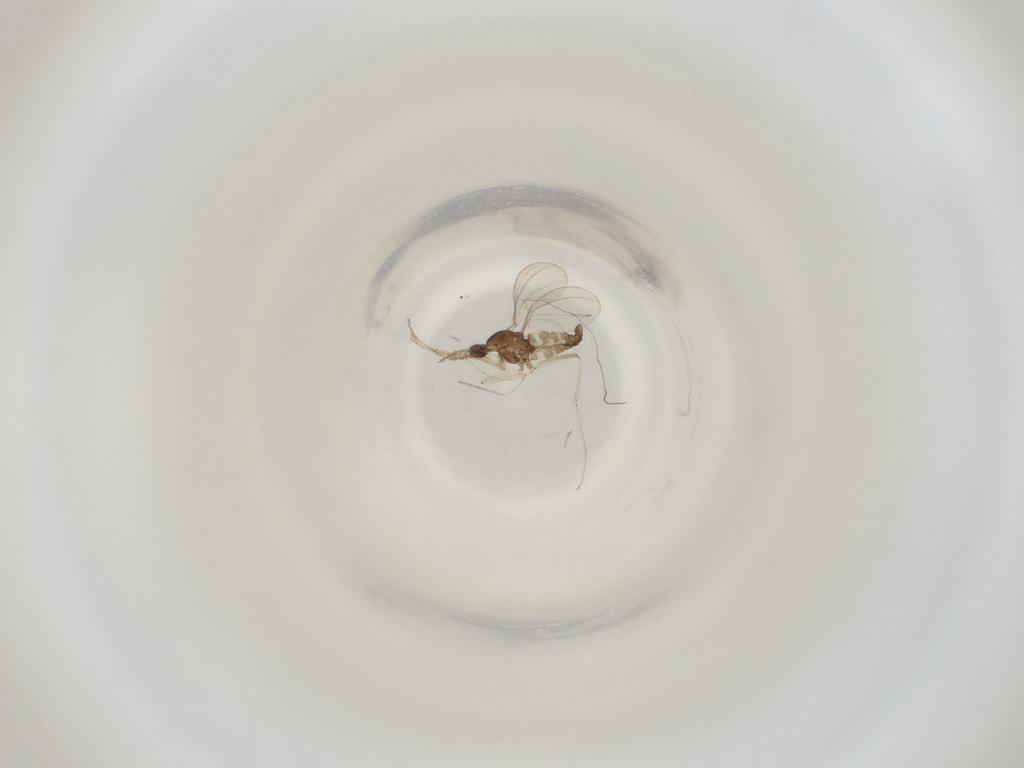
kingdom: Animalia
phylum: Arthropoda
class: Insecta
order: Diptera
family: Cecidomyiidae
